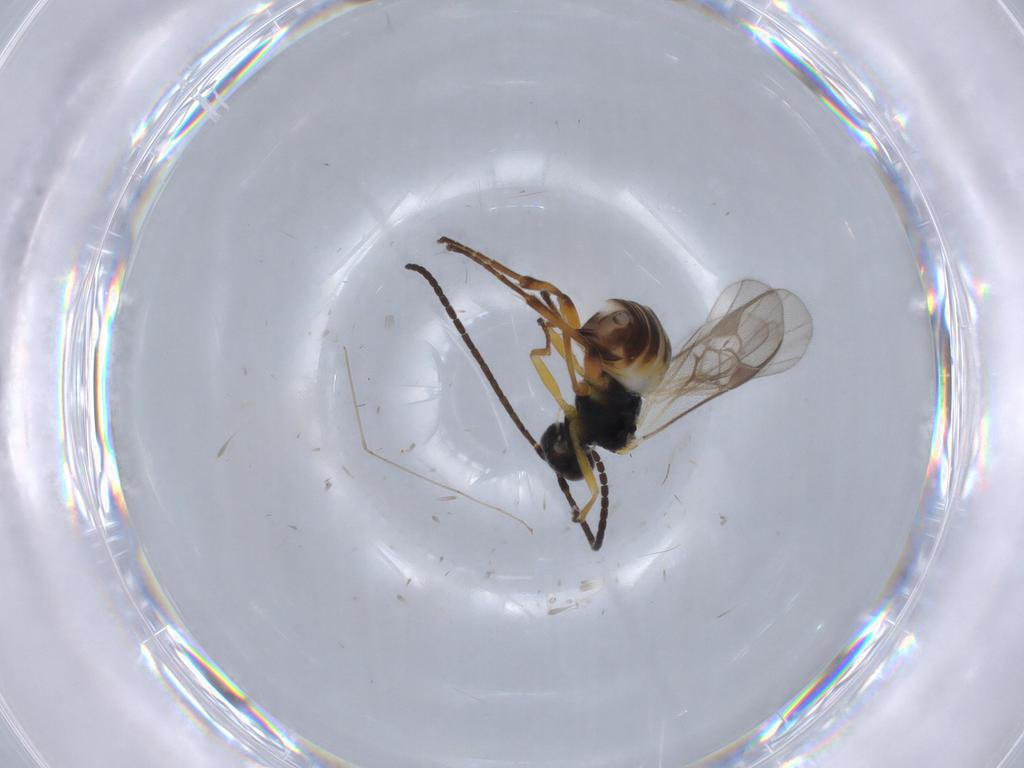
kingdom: Animalia
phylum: Arthropoda
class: Insecta
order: Hymenoptera
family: Braconidae
